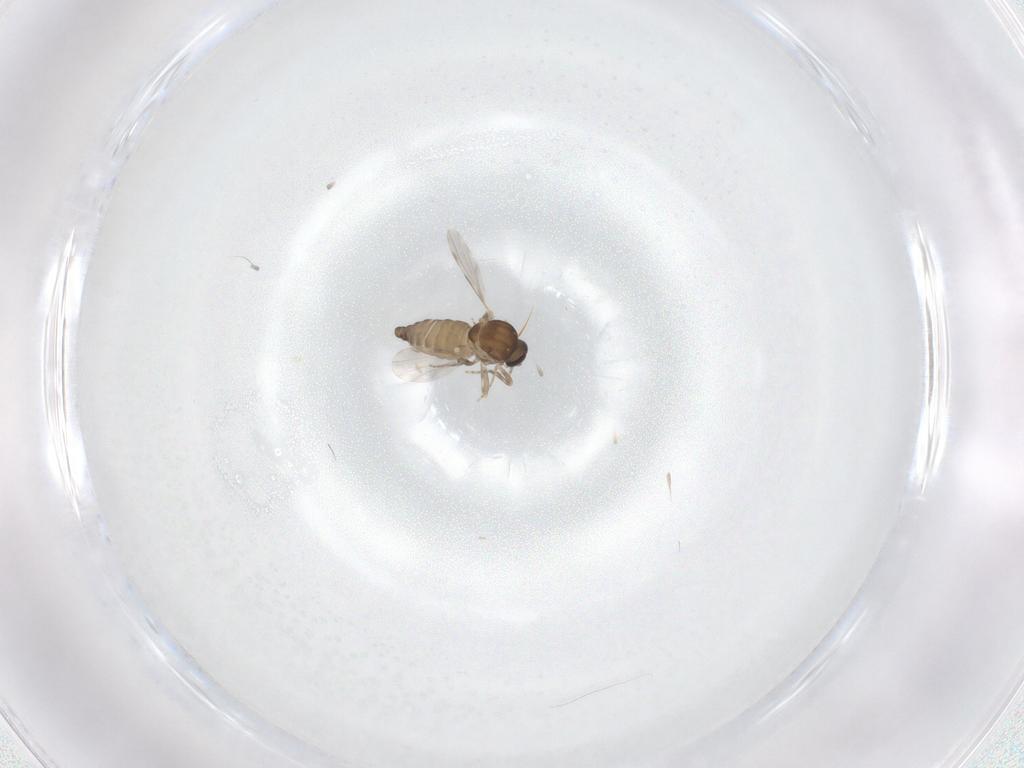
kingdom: Animalia
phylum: Arthropoda
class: Insecta
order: Diptera
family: Ceratopogonidae
